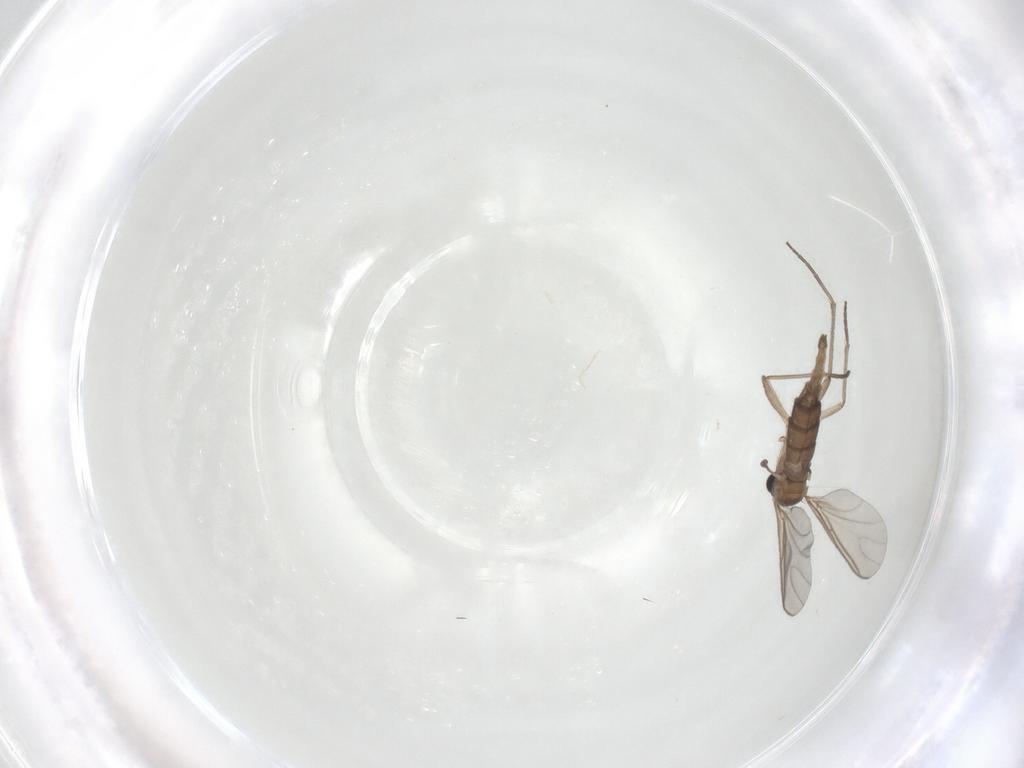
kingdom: Animalia
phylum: Arthropoda
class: Insecta
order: Diptera
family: Sciaridae
